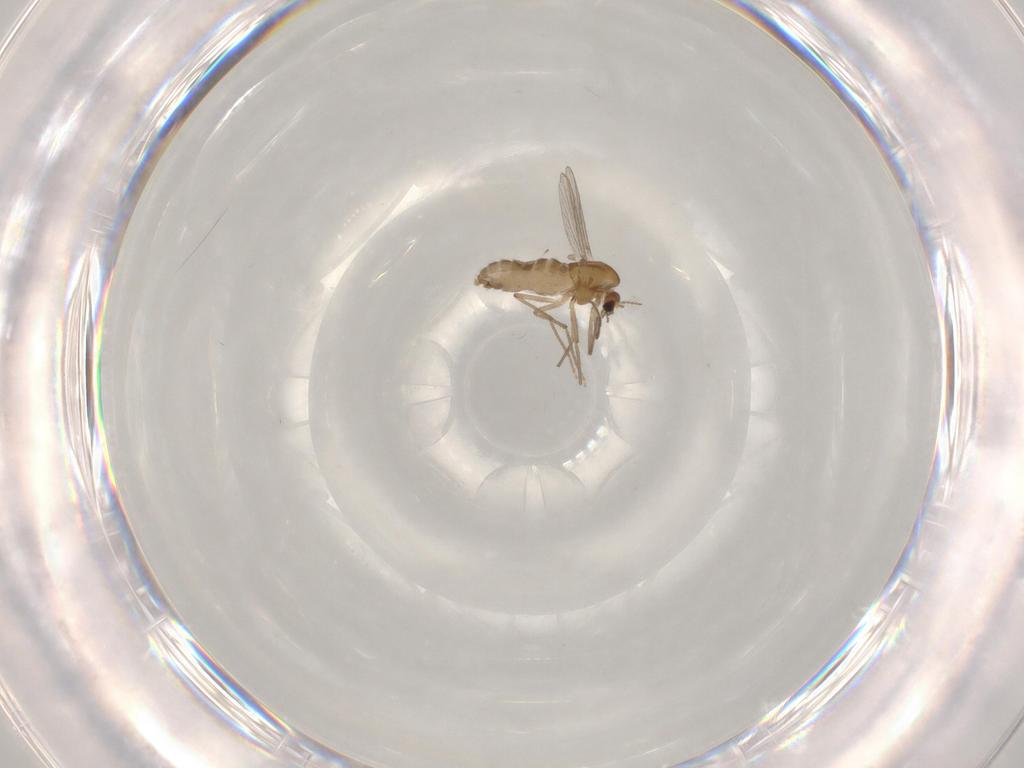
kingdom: Animalia
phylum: Arthropoda
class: Insecta
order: Diptera
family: Chironomidae
